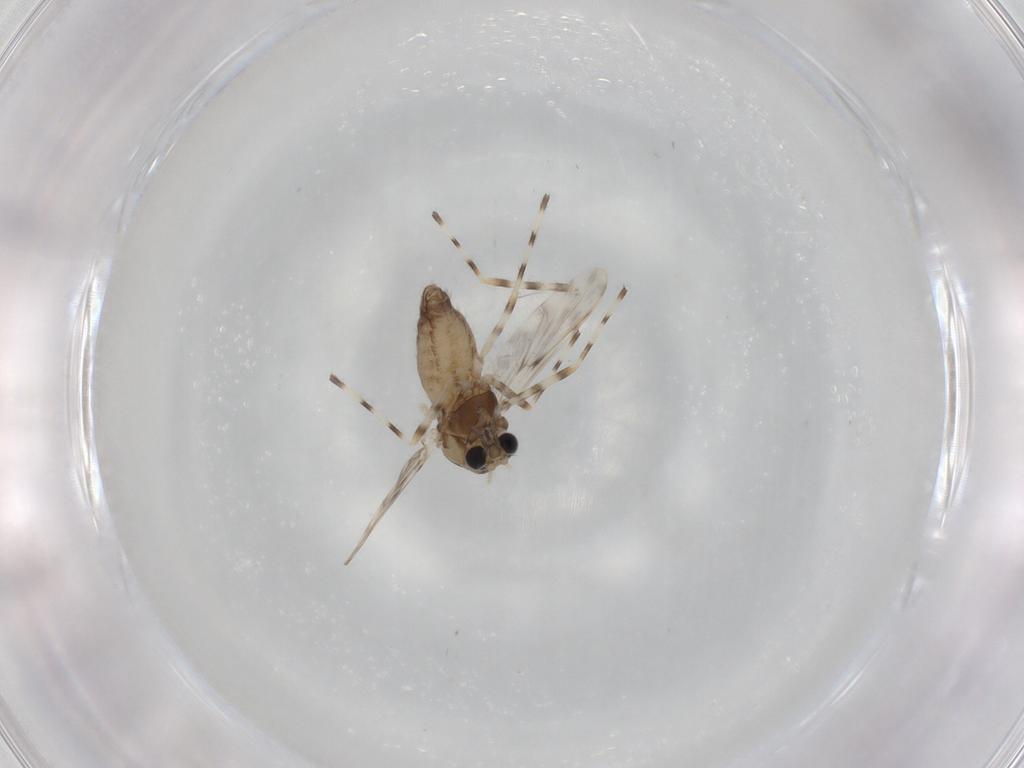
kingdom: Animalia
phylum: Arthropoda
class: Insecta
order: Diptera
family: Chironomidae
